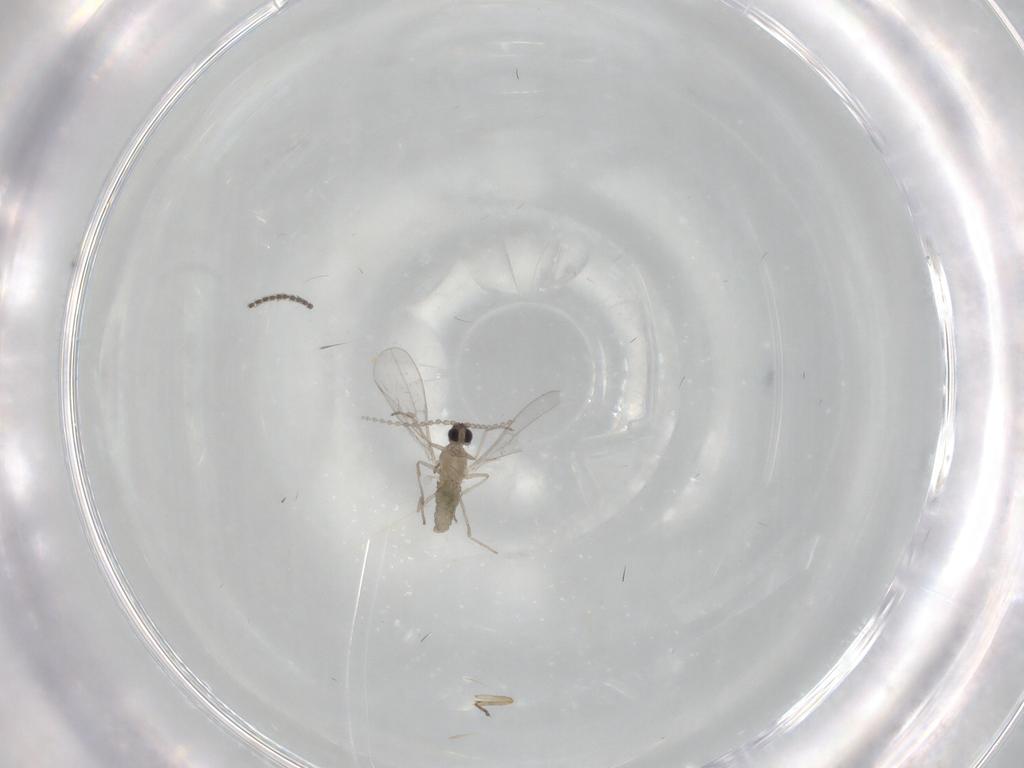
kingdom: Animalia
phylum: Arthropoda
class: Insecta
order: Diptera
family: Cecidomyiidae
